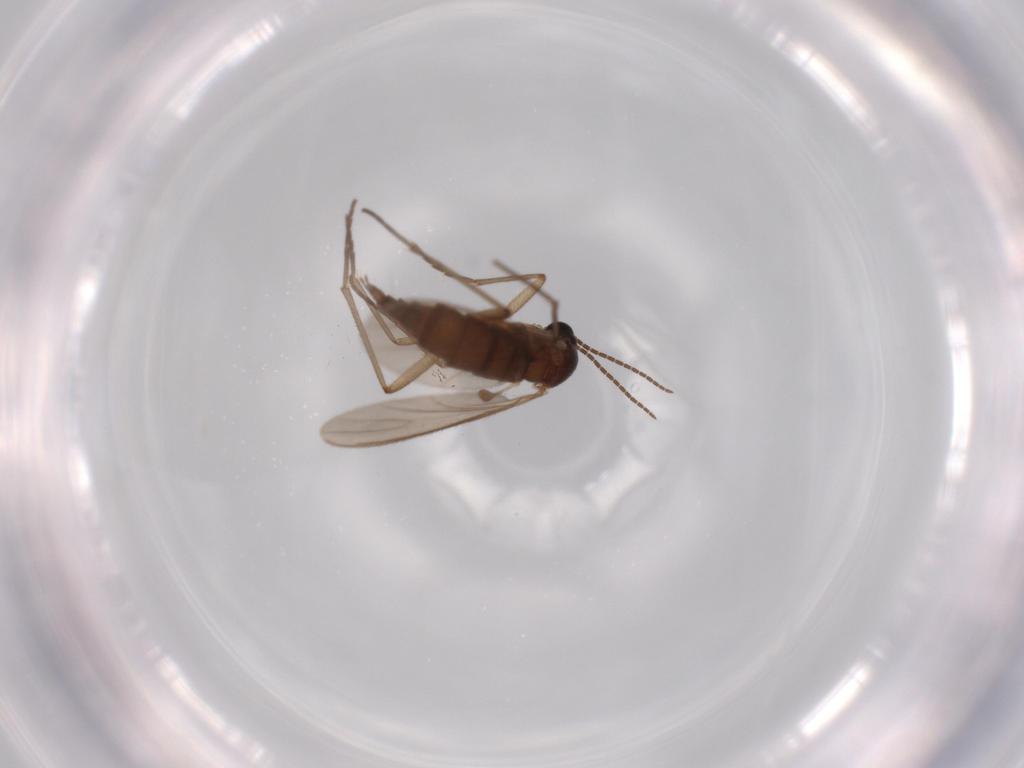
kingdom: Animalia
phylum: Arthropoda
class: Insecta
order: Diptera
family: Sciaridae
